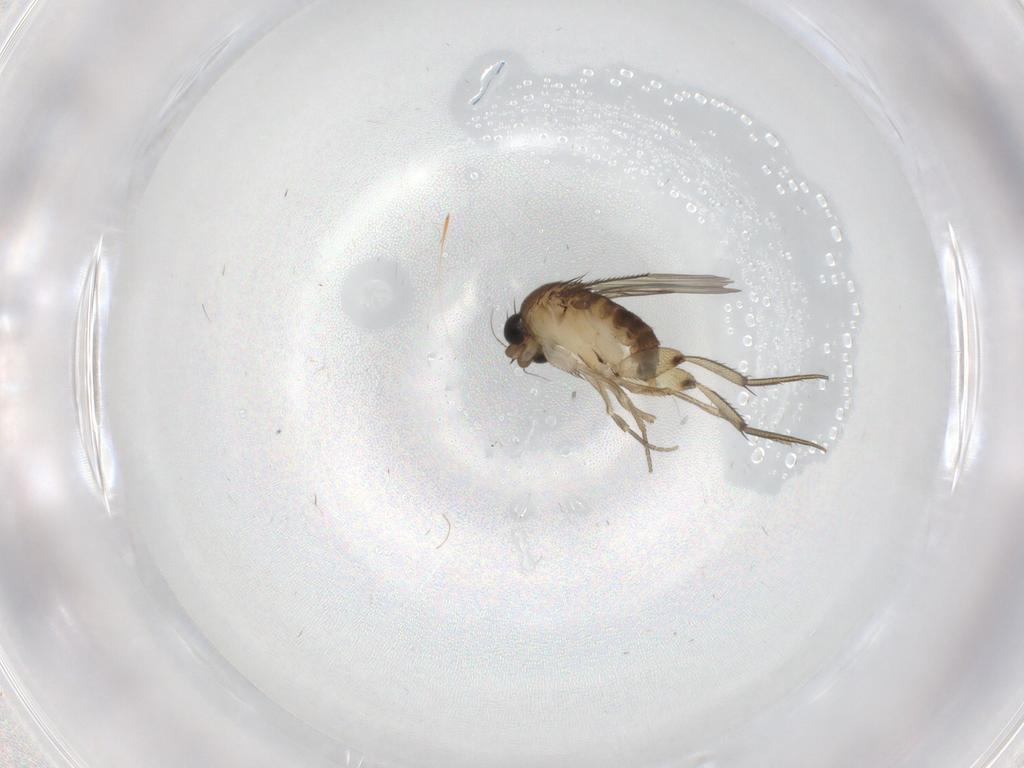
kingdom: Animalia
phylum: Arthropoda
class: Insecta
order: Diptera
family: Phoridae
